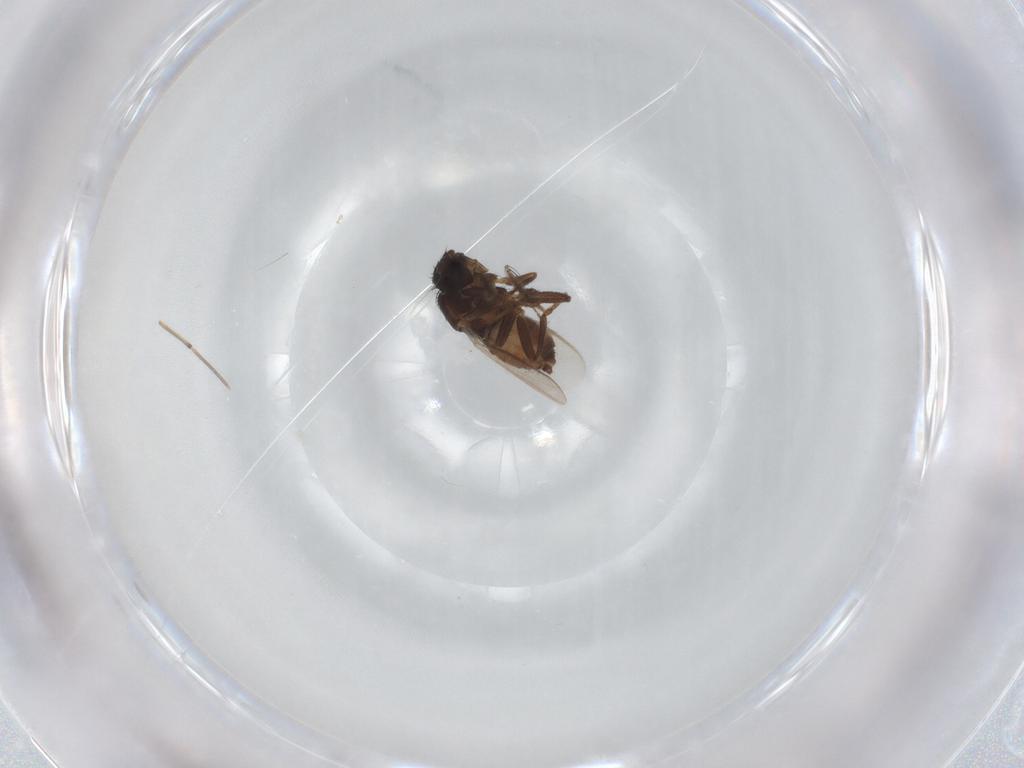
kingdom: Animalia
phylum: Arthropoda
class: Insecta
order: Diptera
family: Sphaeroceridae
